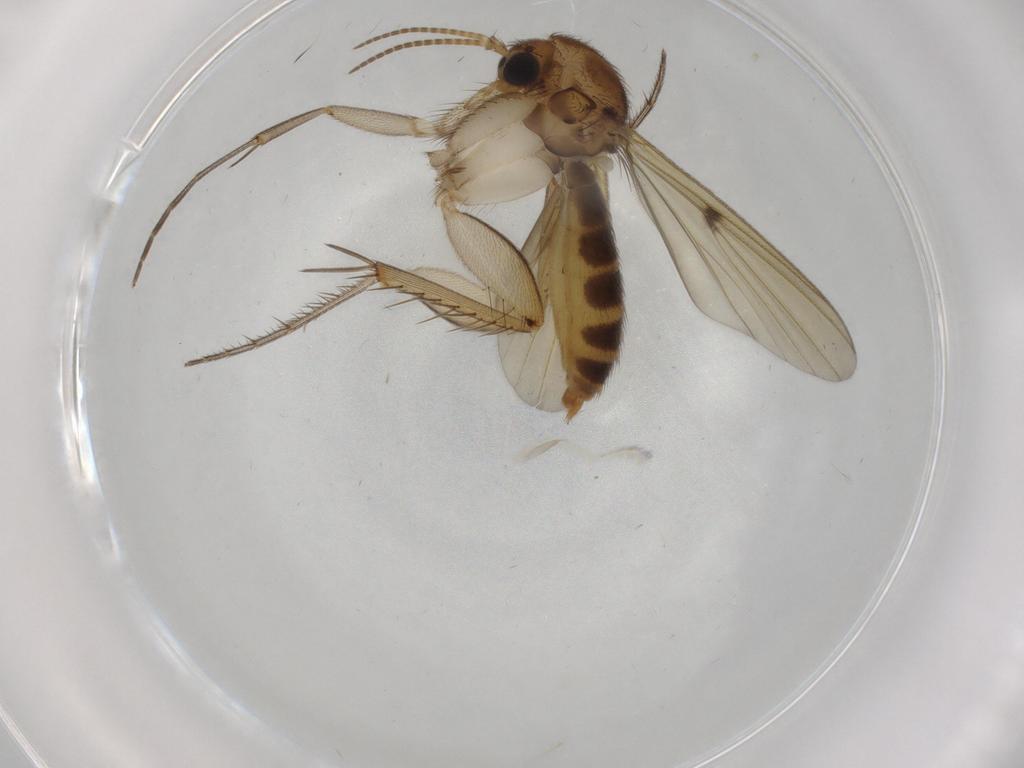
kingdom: Animalia
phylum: Arthropoda
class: Insecta
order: Diptera
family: Cecidomyiidae
